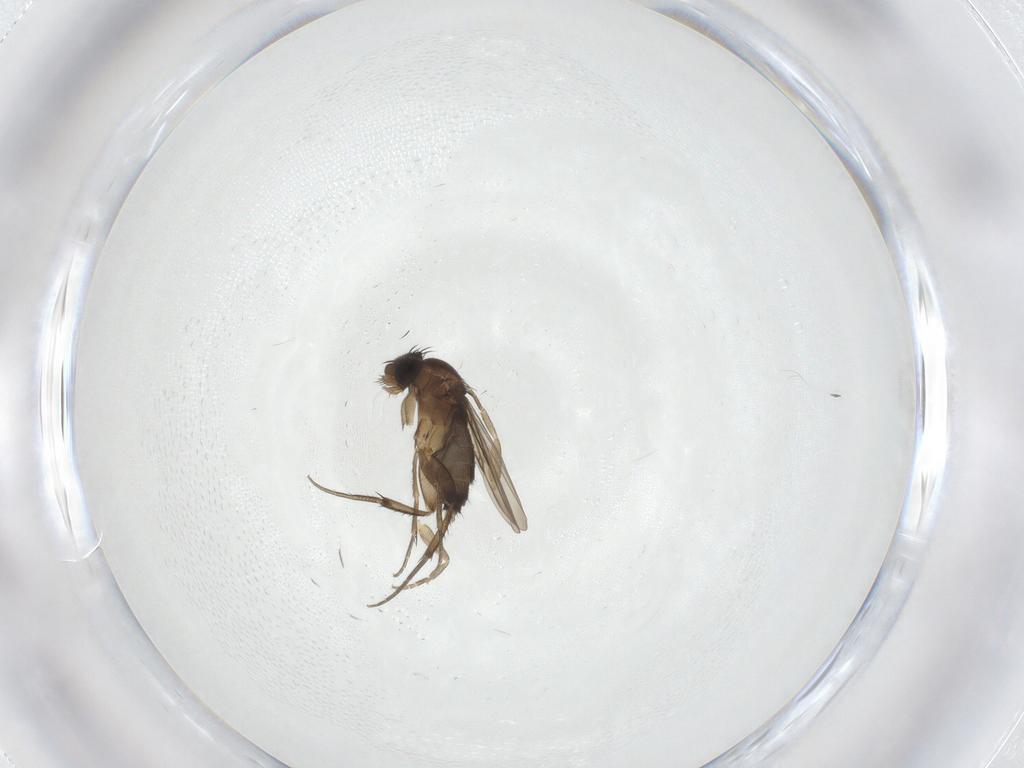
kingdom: Animalia
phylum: Arthropoda
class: Insecta
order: Diptera
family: Phoridae
